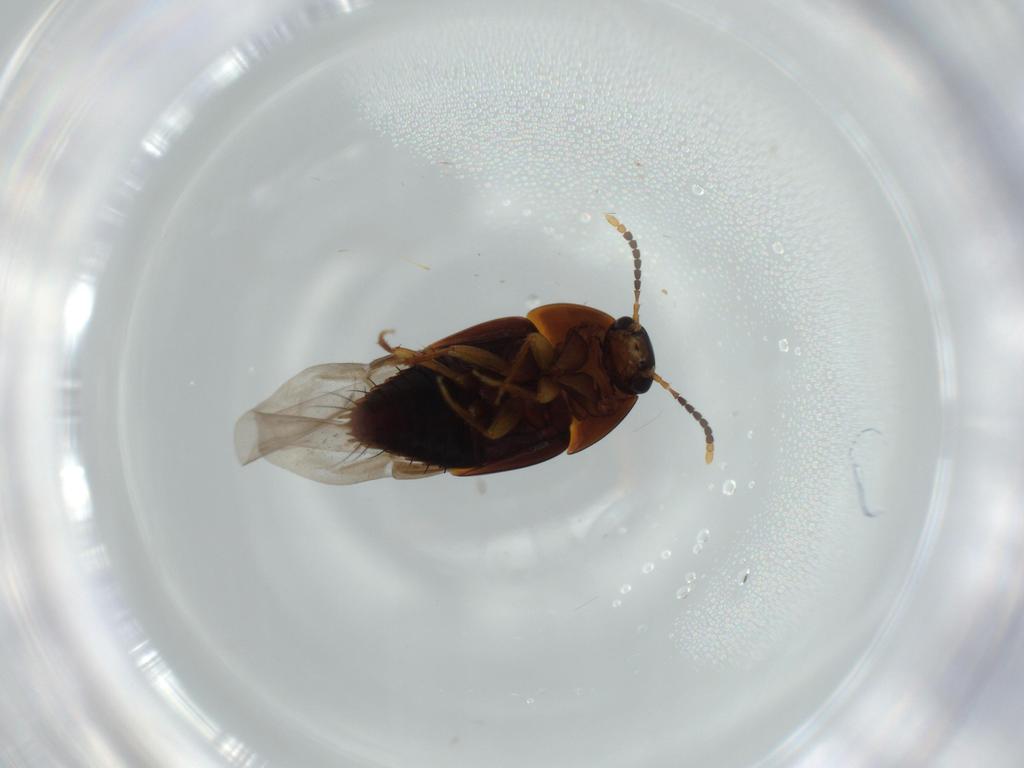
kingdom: Animalia
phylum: Arthropoda
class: Insecta
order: Coleoptera
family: Staphylinidae
